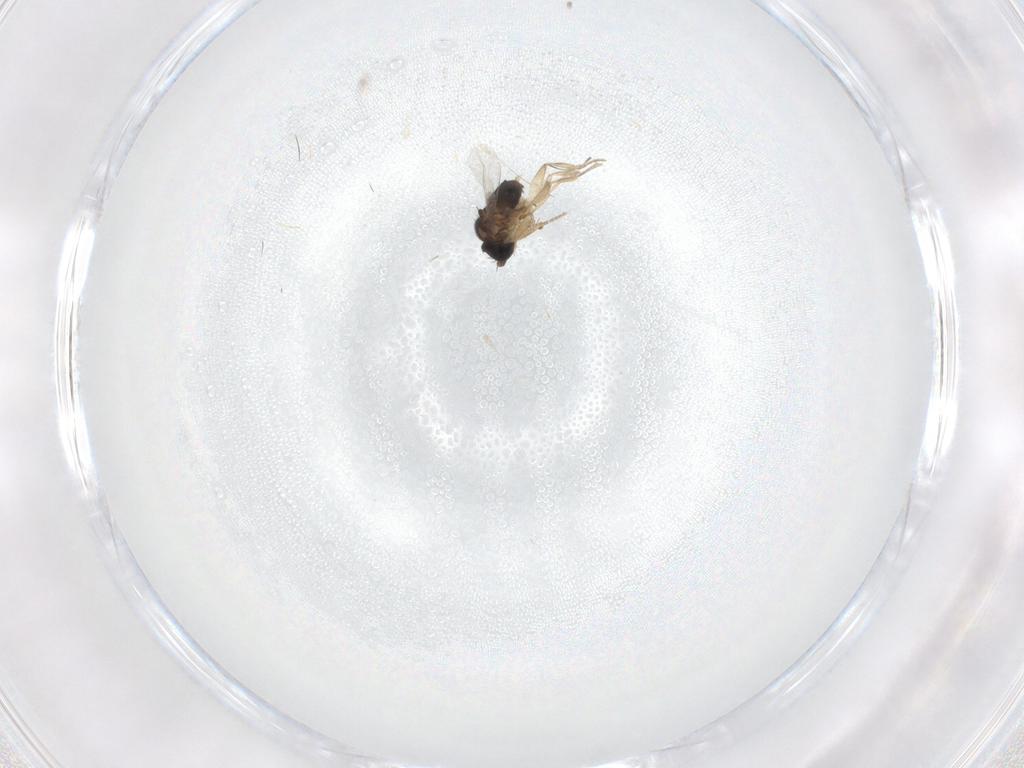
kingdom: Animalia
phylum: Arthropoda
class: Insecta
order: Diptera
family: Phoridae
